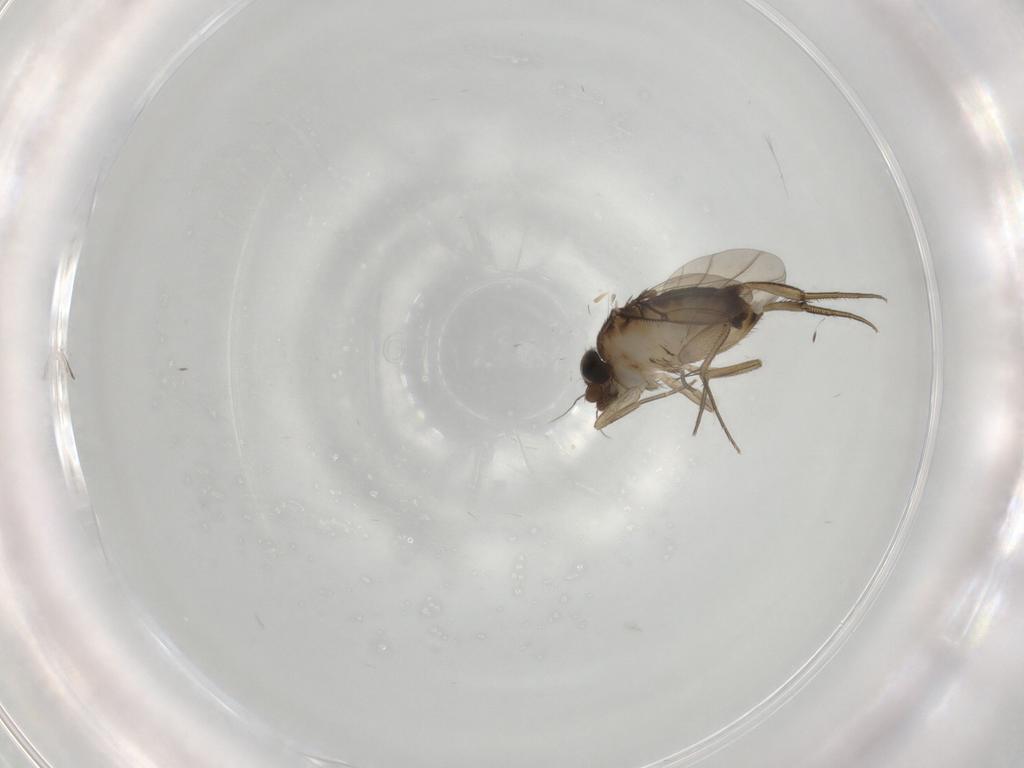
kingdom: Animalia
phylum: Arthropoda
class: Insecta
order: Diptera
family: Phoridae
